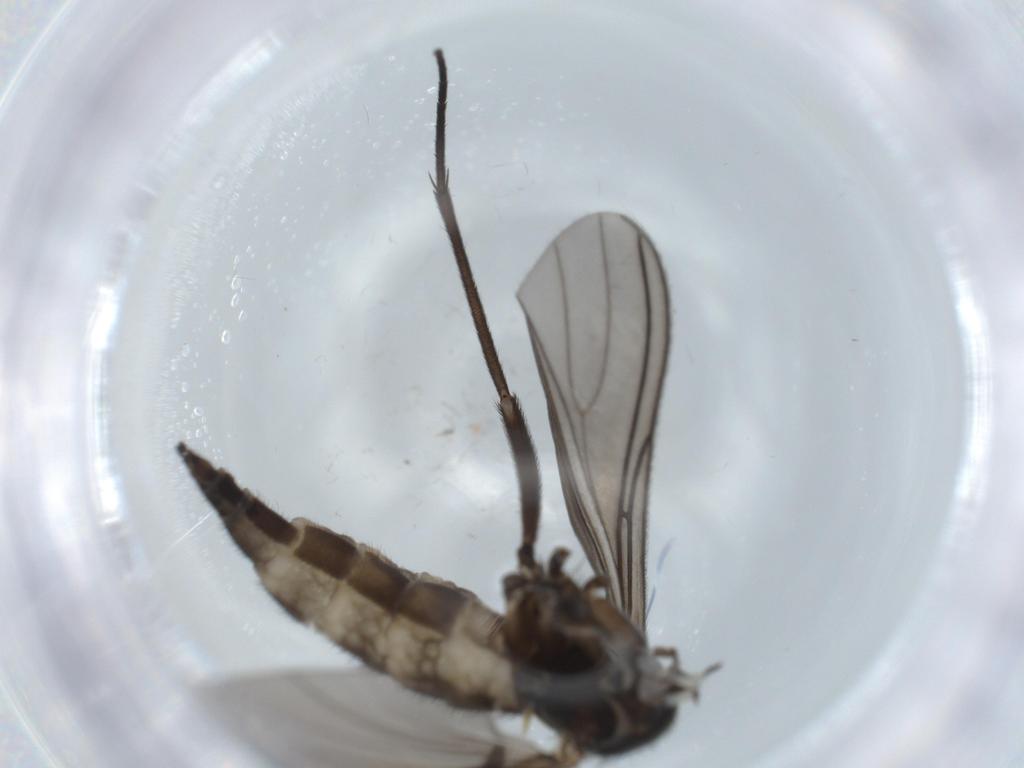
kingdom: Animalia
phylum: Arthropoda
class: Insecta
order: Diptera
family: Sciaridae
